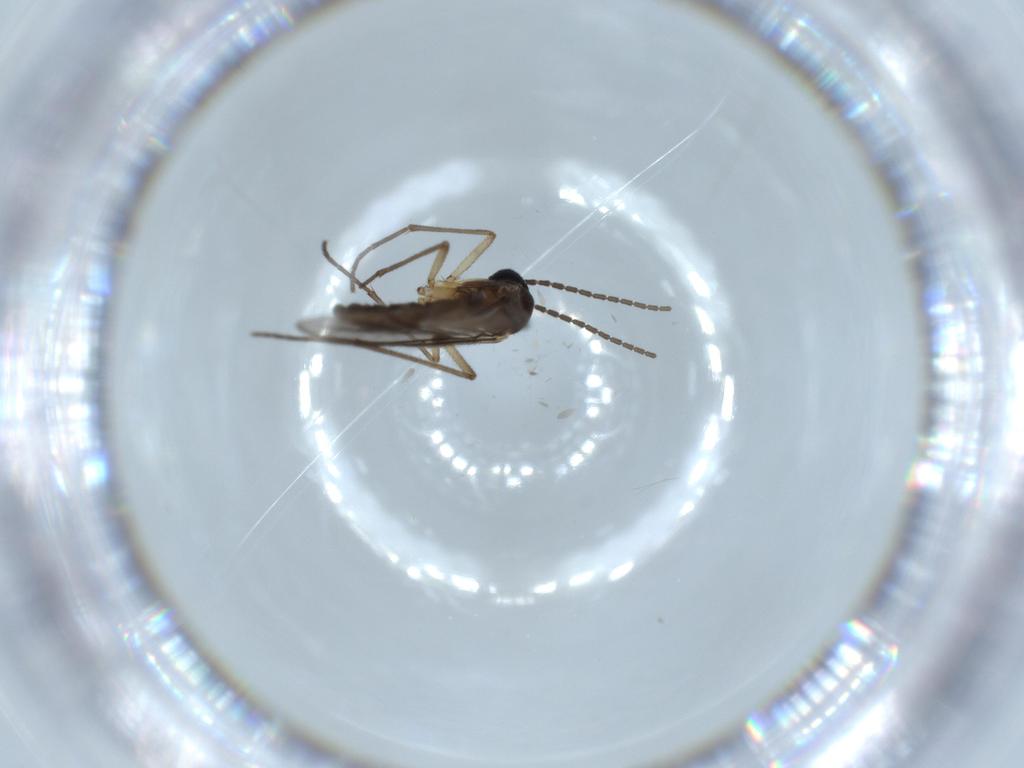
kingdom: Animalia
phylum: Arthropoda
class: Insecta
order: Diptera
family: Sciaridae
